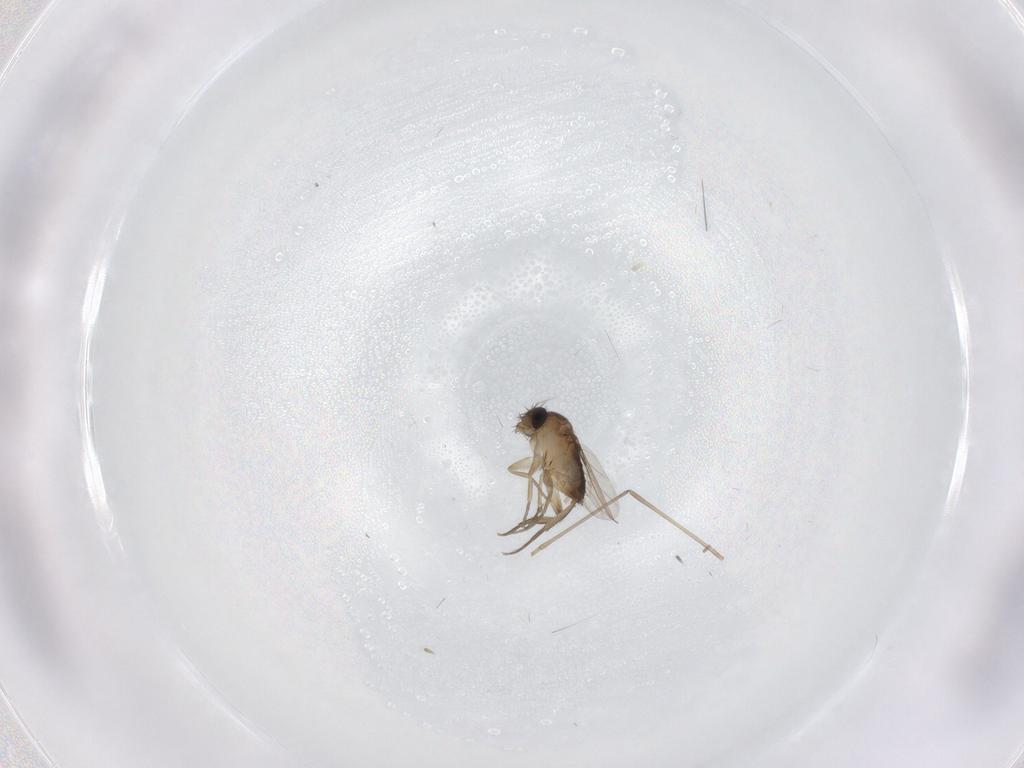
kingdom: Animalia
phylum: Arthropoda
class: Insecta
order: Diptera
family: Phoridae
